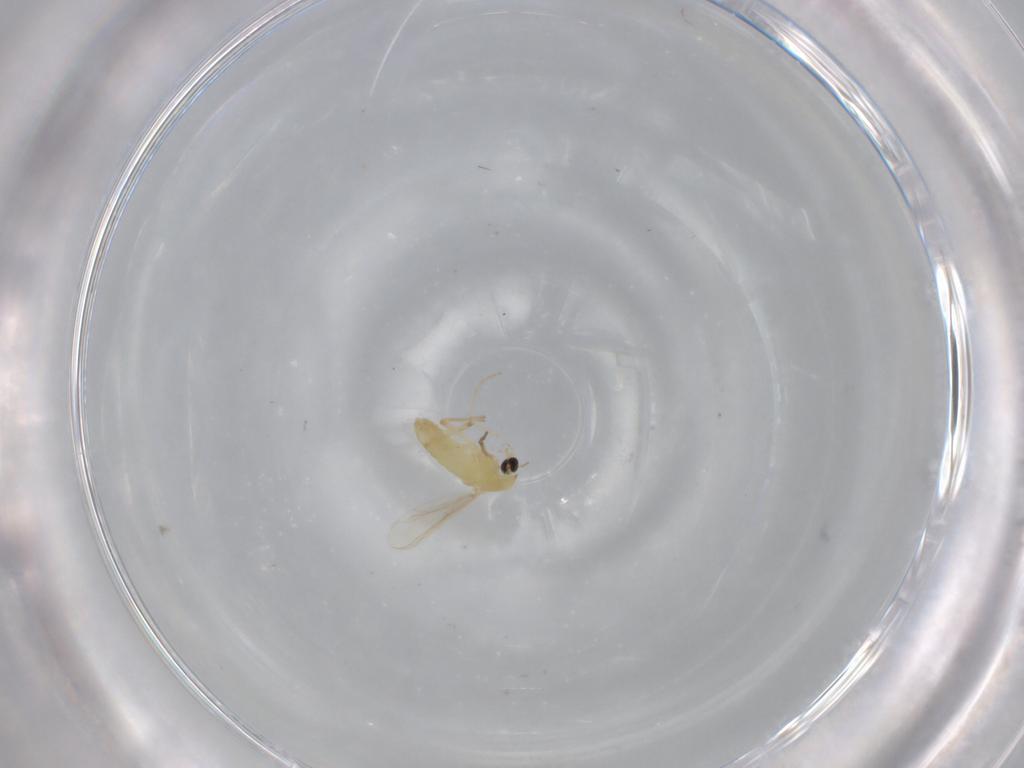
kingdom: Animalia
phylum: Arthropoda
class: Insecta
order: Diptera
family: Chironomidae
